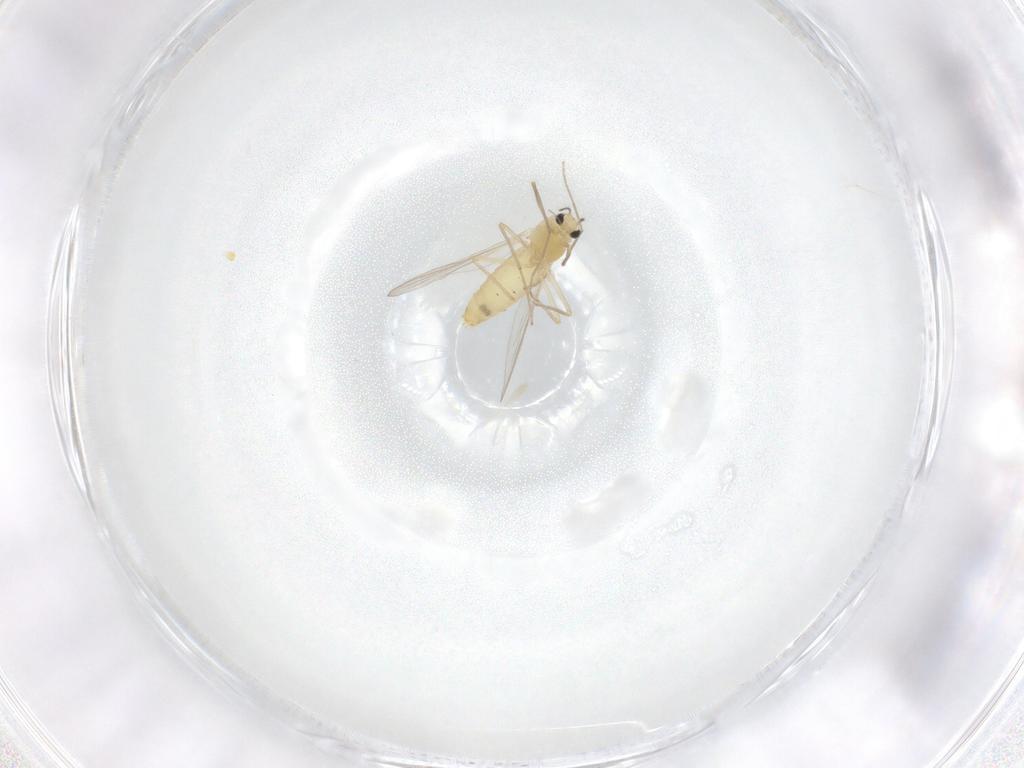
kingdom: Animalia
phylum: Arthropoda
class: Insecta
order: Diptera
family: Chironomidae
